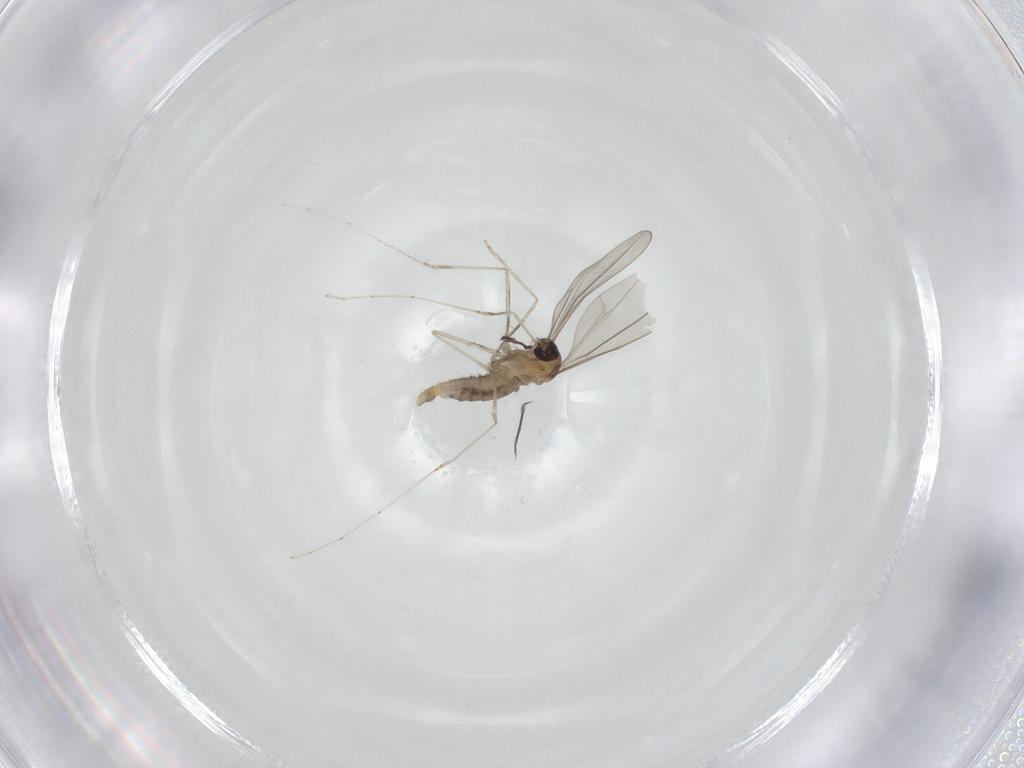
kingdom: Animalia
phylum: Arthropoda
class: Insecta
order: Diptera
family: Cecidomyiidae
